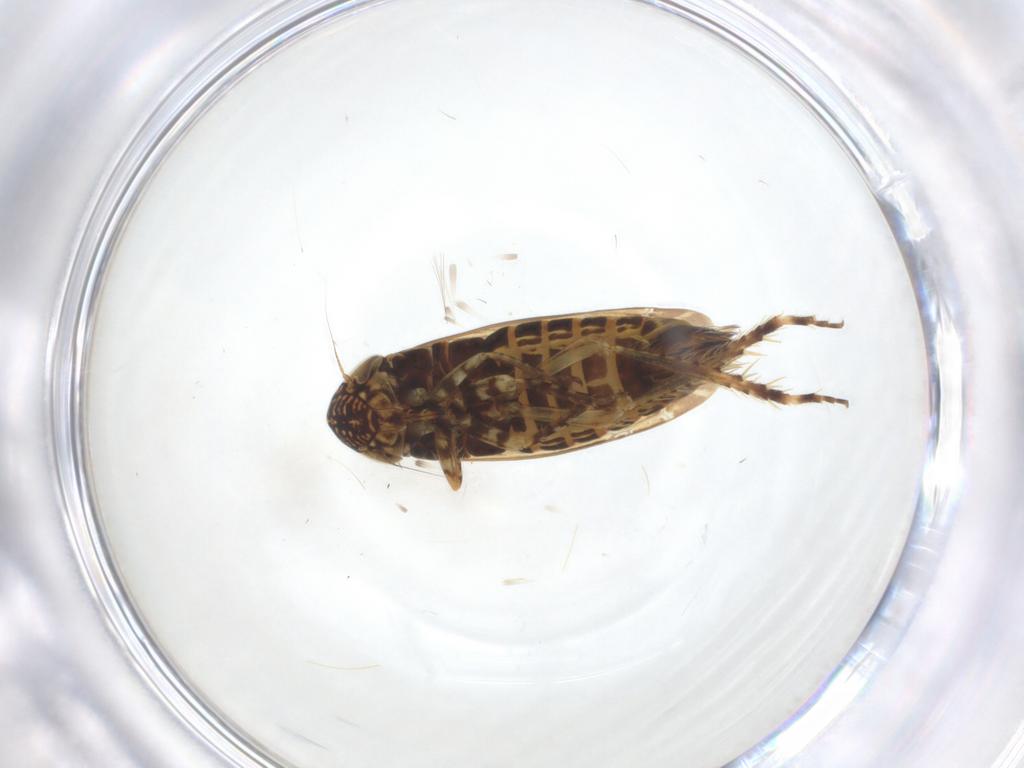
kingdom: Animalia
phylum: Arthropoda
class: Insecta
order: Hemiptera
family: Aphididae
